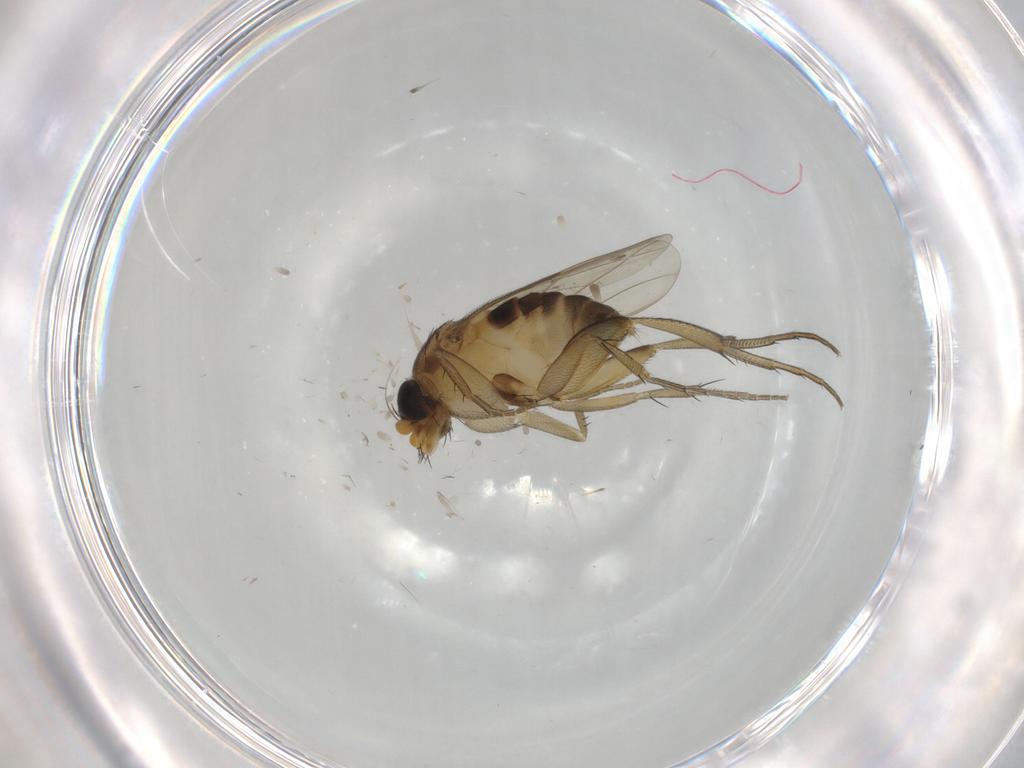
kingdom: Animalia
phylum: Arthropoda
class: Insecta
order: Diptera
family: Phoridae
